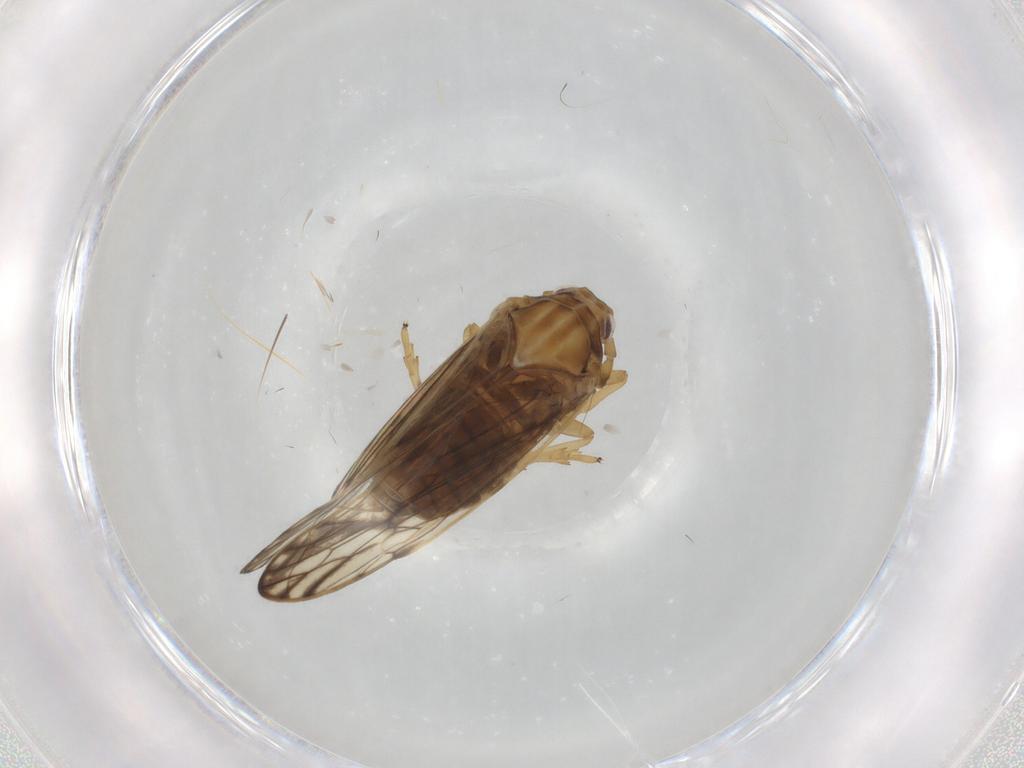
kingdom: Animalia
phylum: Arthropoda
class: Insecta
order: Hemiptera
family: Delphacidae
